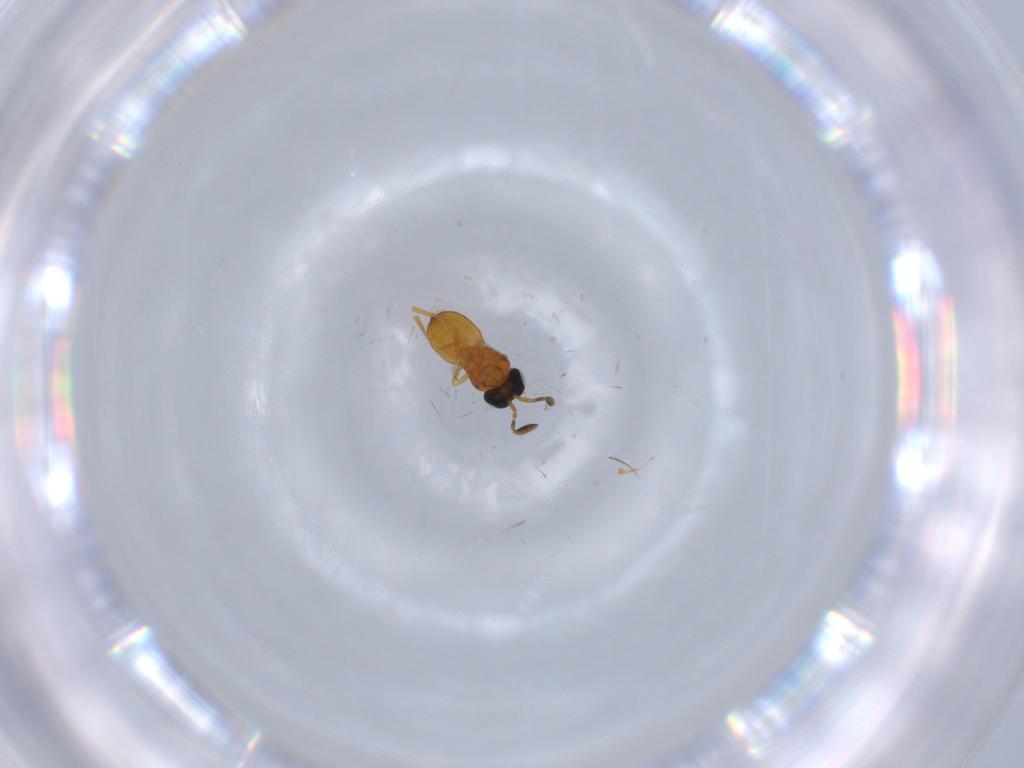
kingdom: Animalia
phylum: Arthropoda
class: Insecta
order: Hymenoptera
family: Scelionidae
